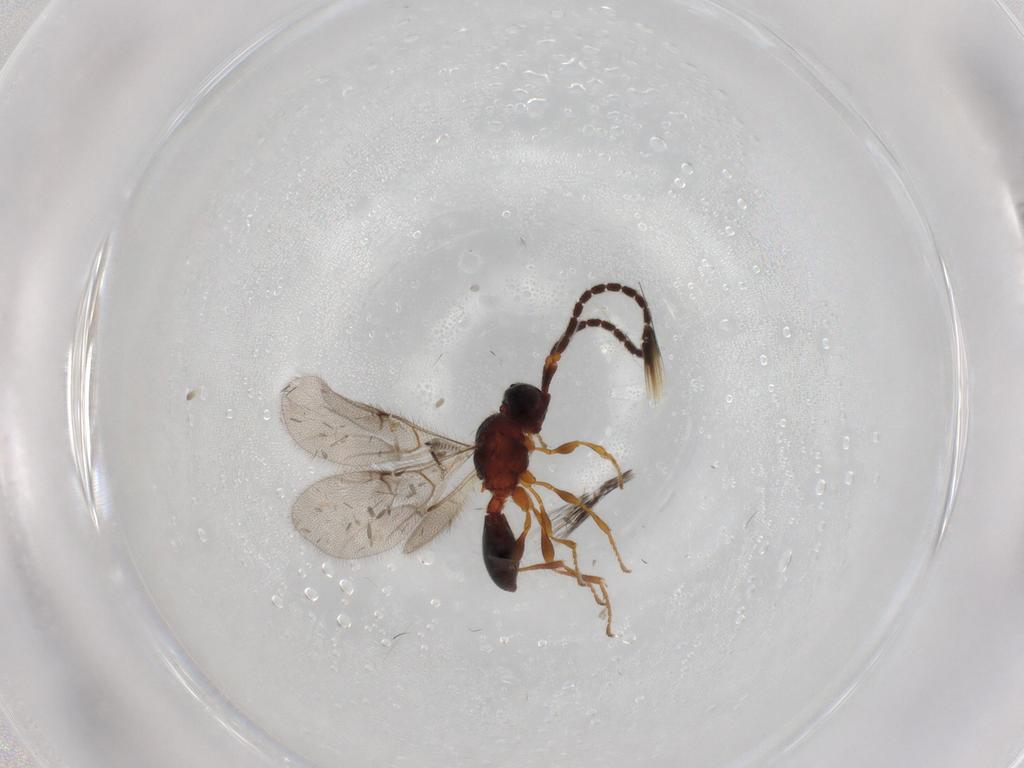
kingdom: Animalia
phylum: Arthropoda
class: Insecta
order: Hymenoptera
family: Diapriidae
